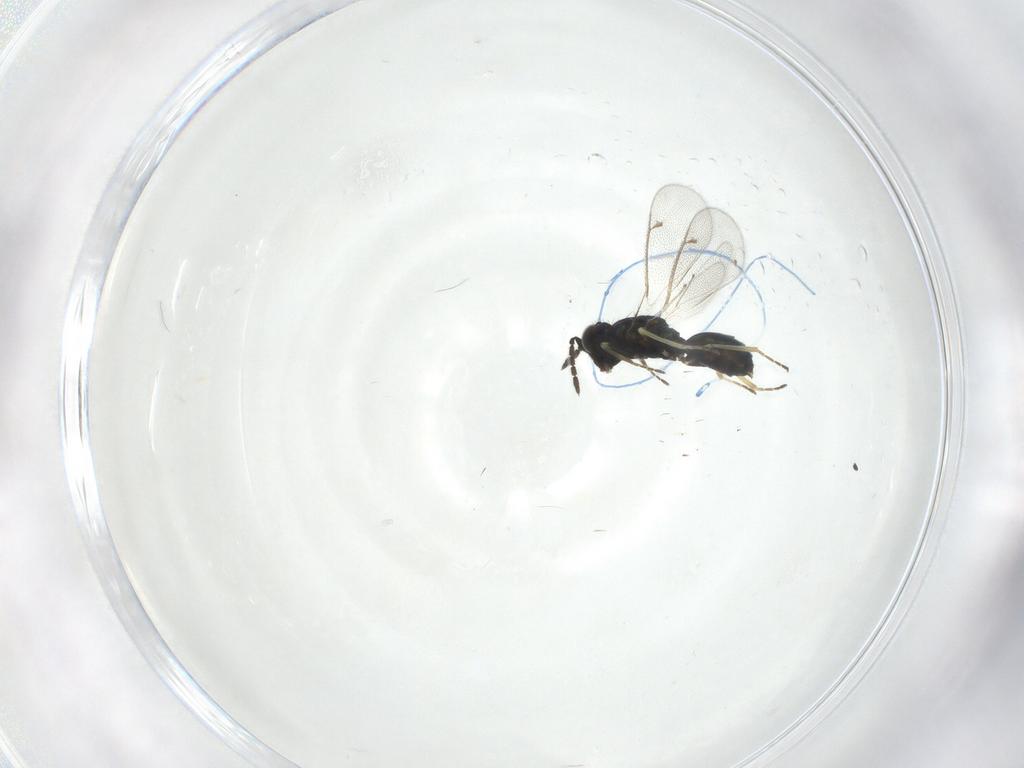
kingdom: Animalia
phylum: Arthropoda
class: Insecta
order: Hymenoptera
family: Eulophidae
